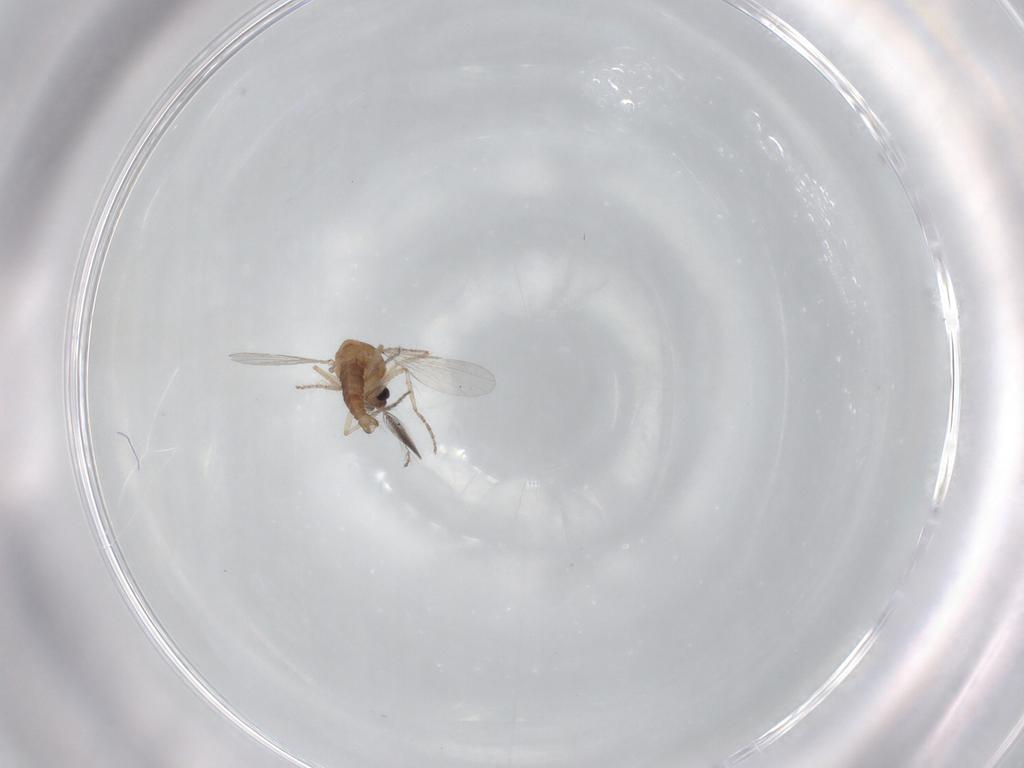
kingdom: Animalia
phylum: Arthropoda
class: Insecta
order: Diptera
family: Ceratopogonidae
